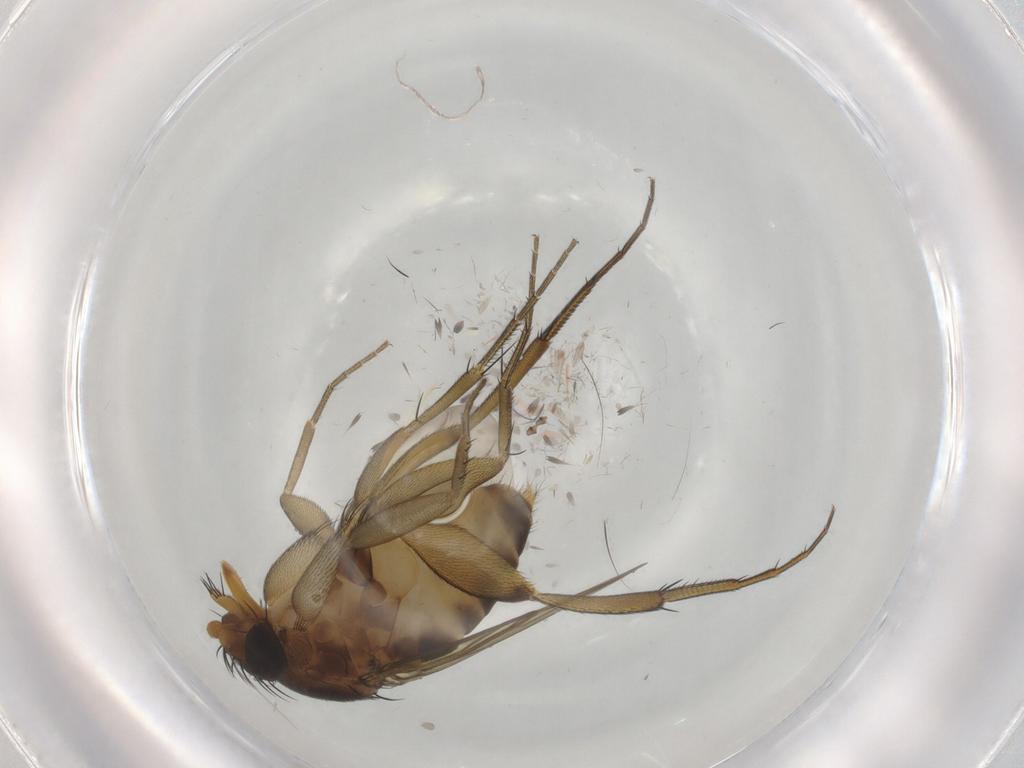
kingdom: Animalia
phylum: Arthropoda
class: Insecta
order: Diptera
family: Phoridae
